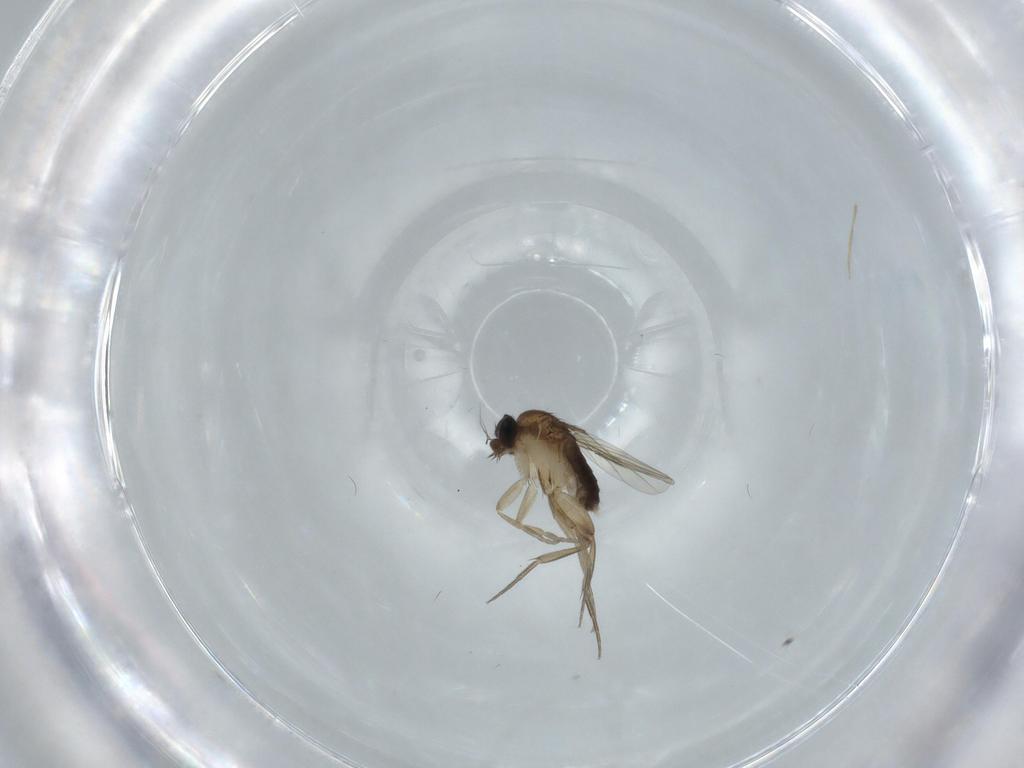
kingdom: Animalia
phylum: Arthropoda
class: Insecta
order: Diptera
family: Phoridae
